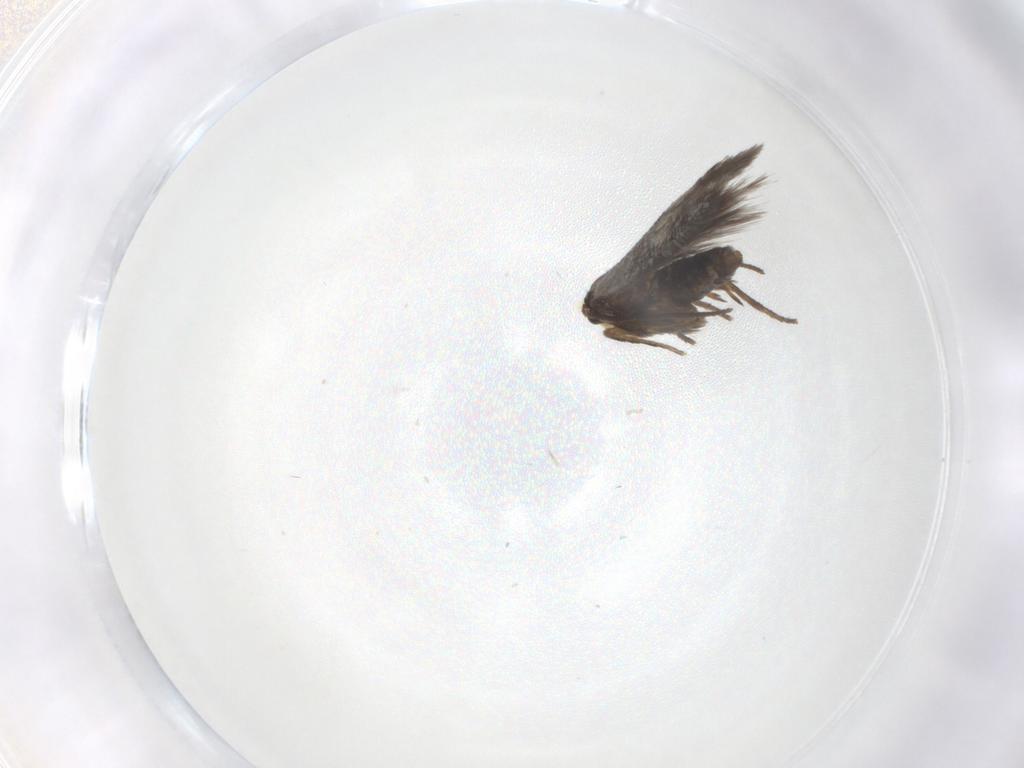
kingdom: Animalia
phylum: Arthropoda
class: Insecta
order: Lepidoptera
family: Nepticulidae
